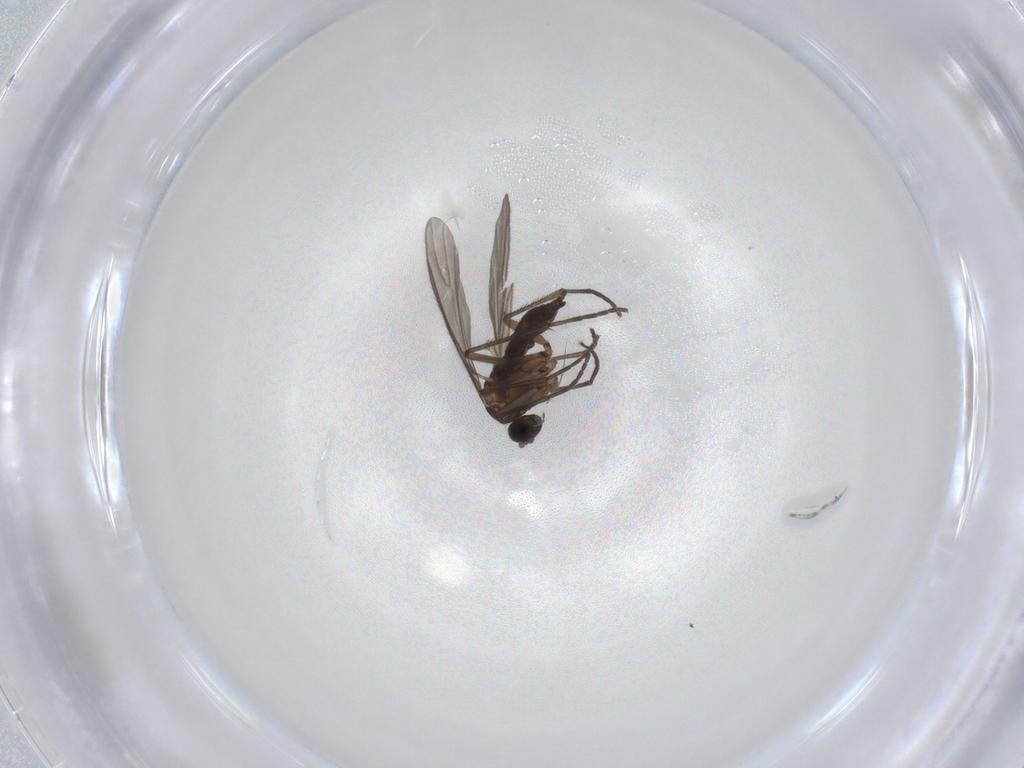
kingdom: Animalia
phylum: Arthropoda
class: Insecta
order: Diptera
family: Sciaridae
